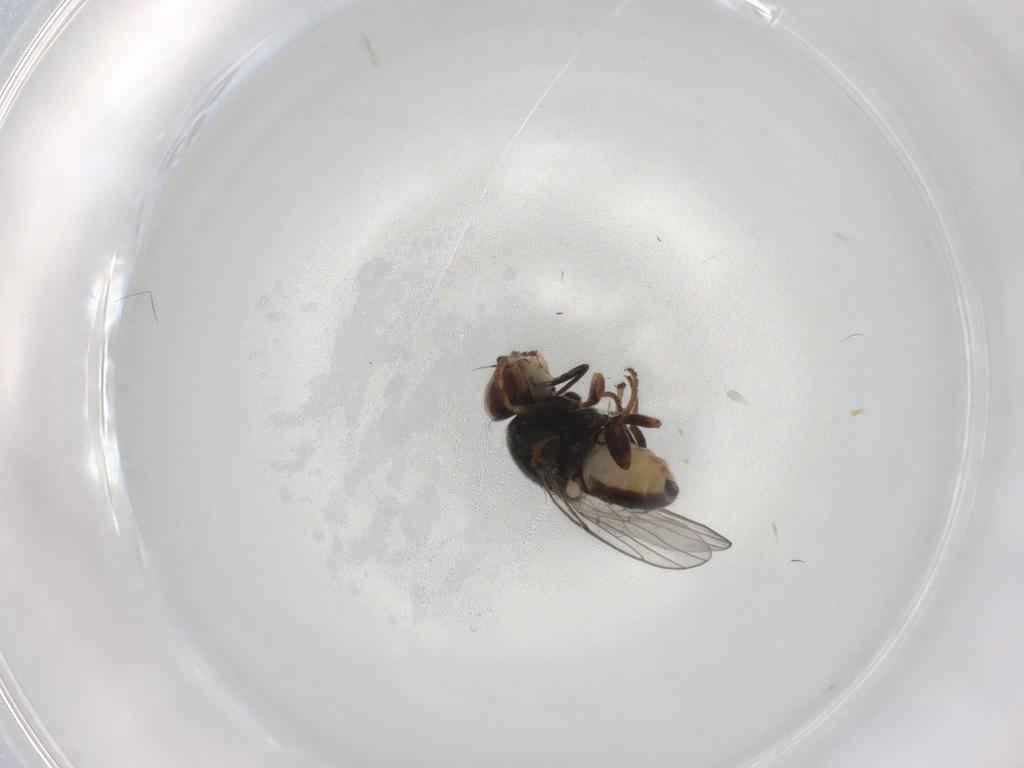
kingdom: Animalia
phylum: Arthropoda
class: Insecta
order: Diptera
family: Chloropidae
